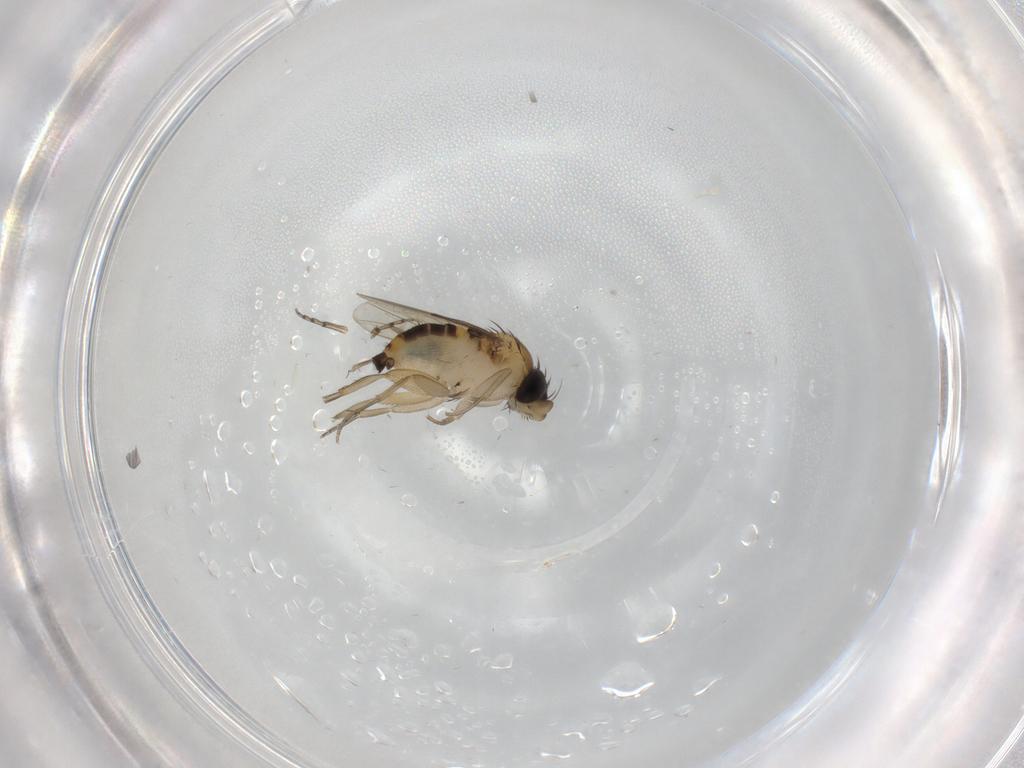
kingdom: Animalia
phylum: Arthropoda
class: Insecta
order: Diptera
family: Phoridae
